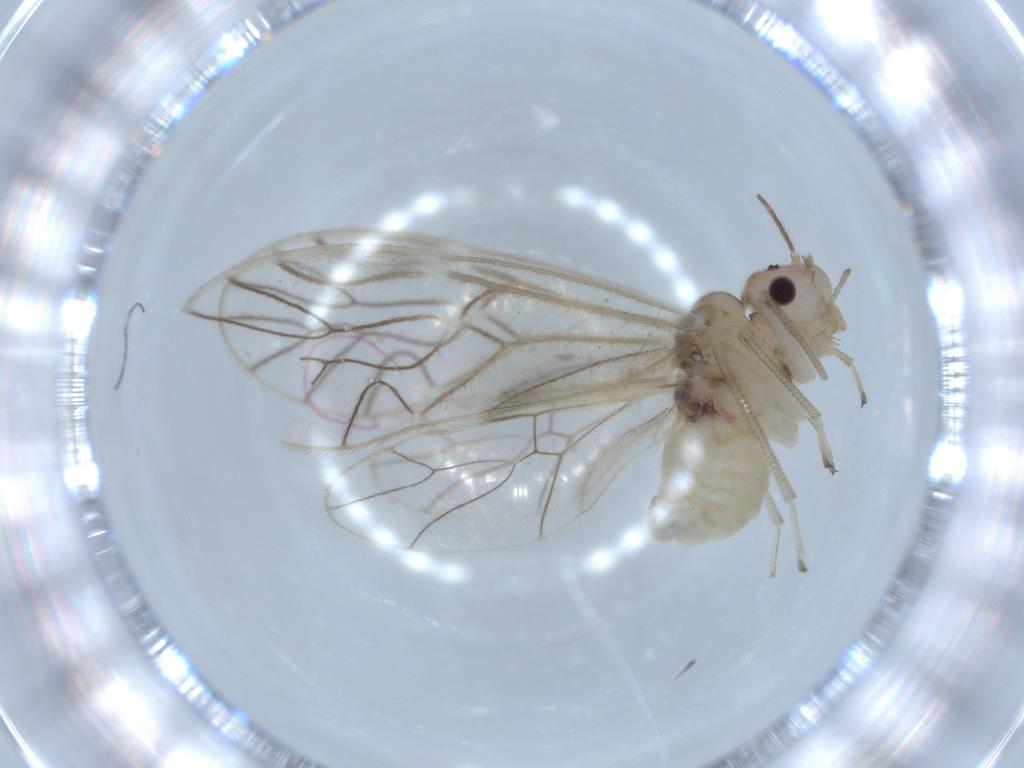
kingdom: Animalia
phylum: Arthropoda
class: Insecta
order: Psocodea
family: Amphipsocidae
